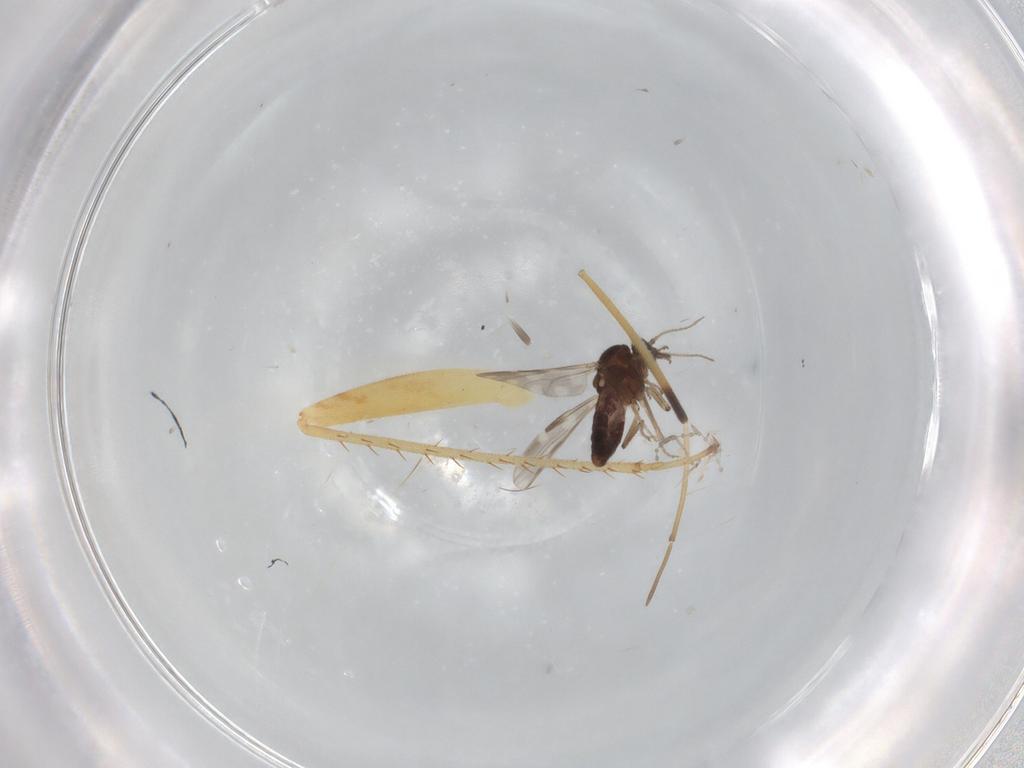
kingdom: Animalia
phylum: Arthropoda
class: Insecta
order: Diptera
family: Ceratopogonidae
